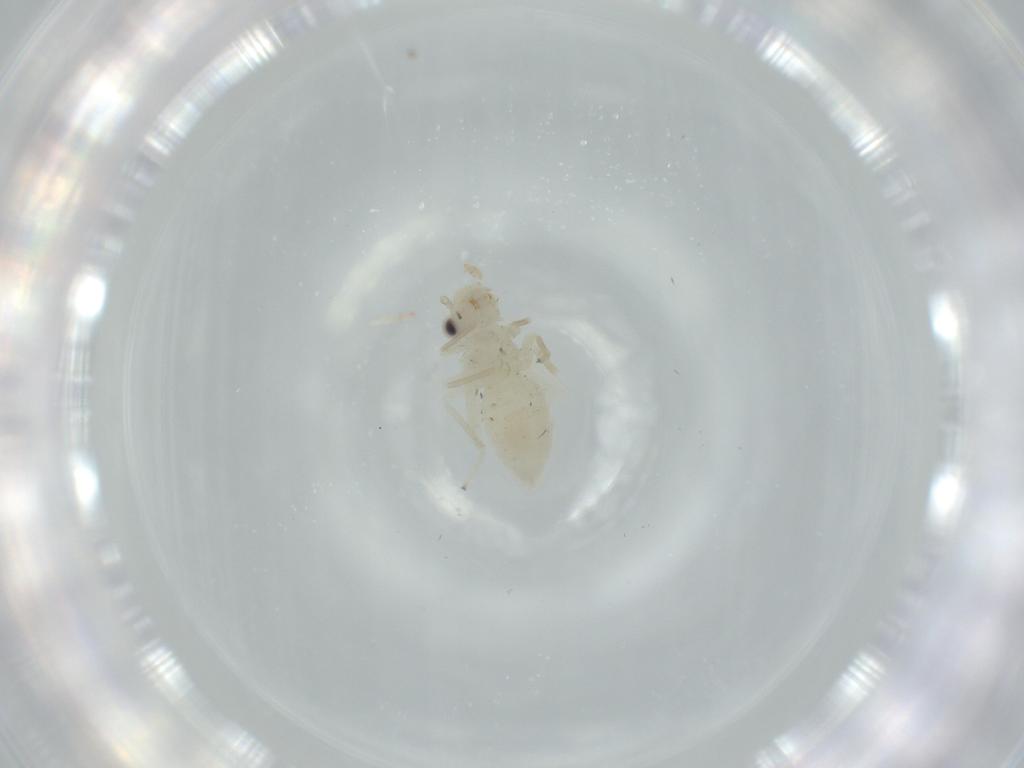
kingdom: Animalia
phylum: Arthropoda
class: Insecta
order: Psocodea
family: Caeciliusidae
